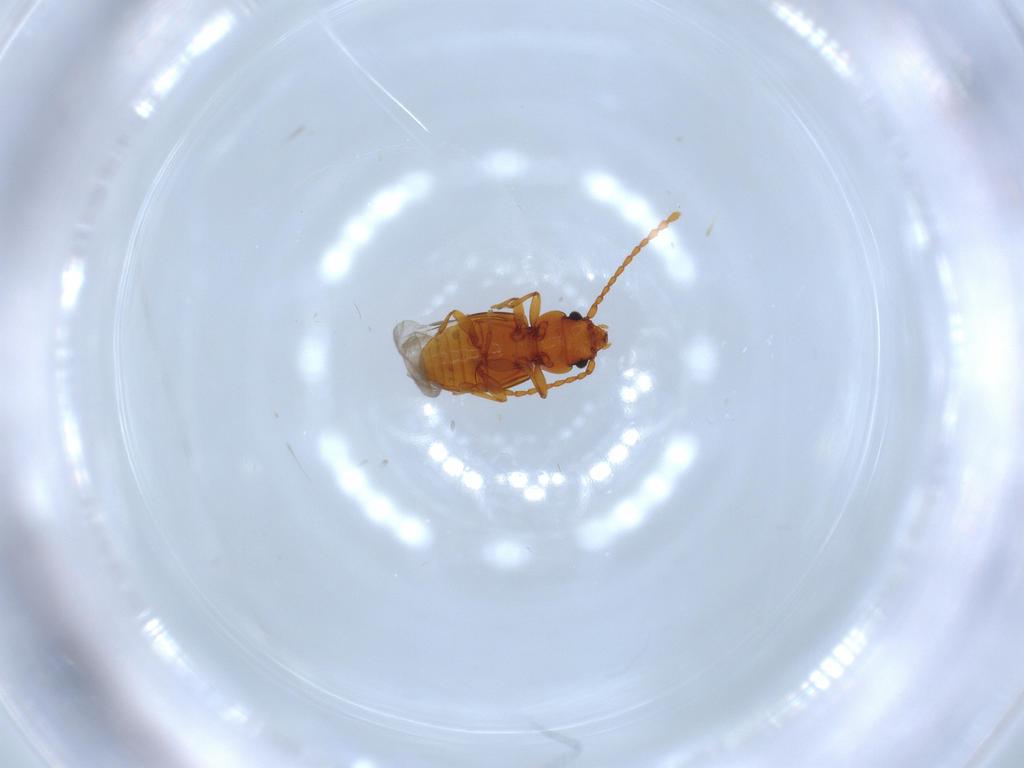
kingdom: Animalia
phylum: Arthropoda
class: Insecta
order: Coleoptera
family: Laemophloeidae
